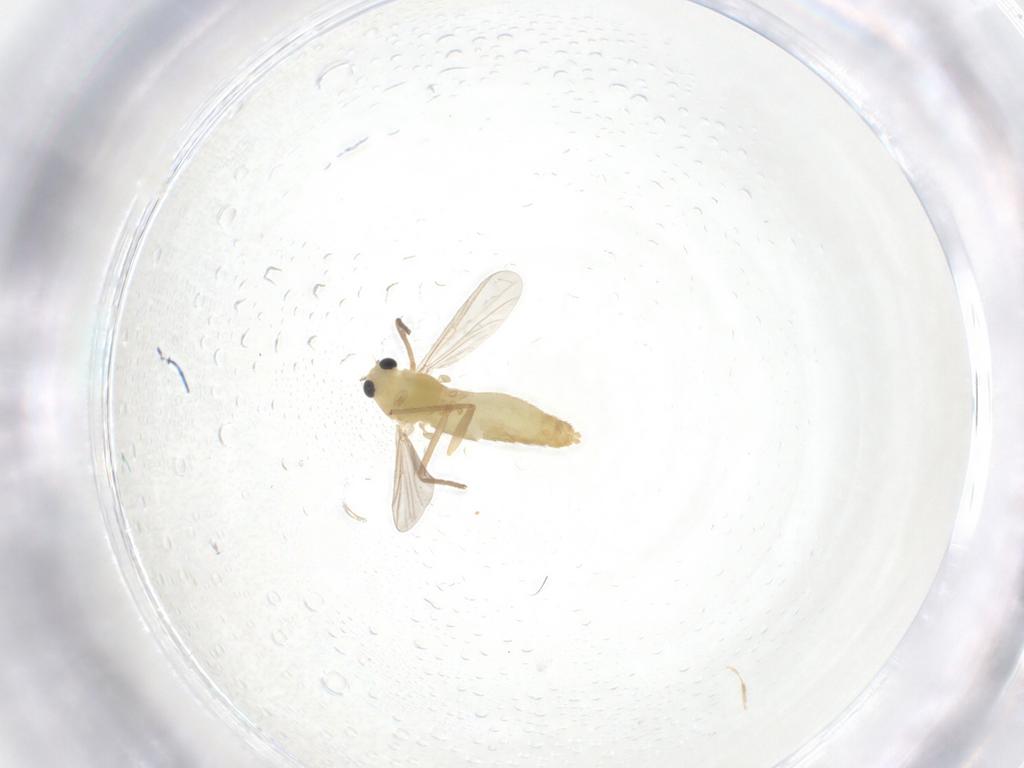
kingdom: Animalia
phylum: Arthropoda
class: Insecta
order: Diptera
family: Chironomidae
